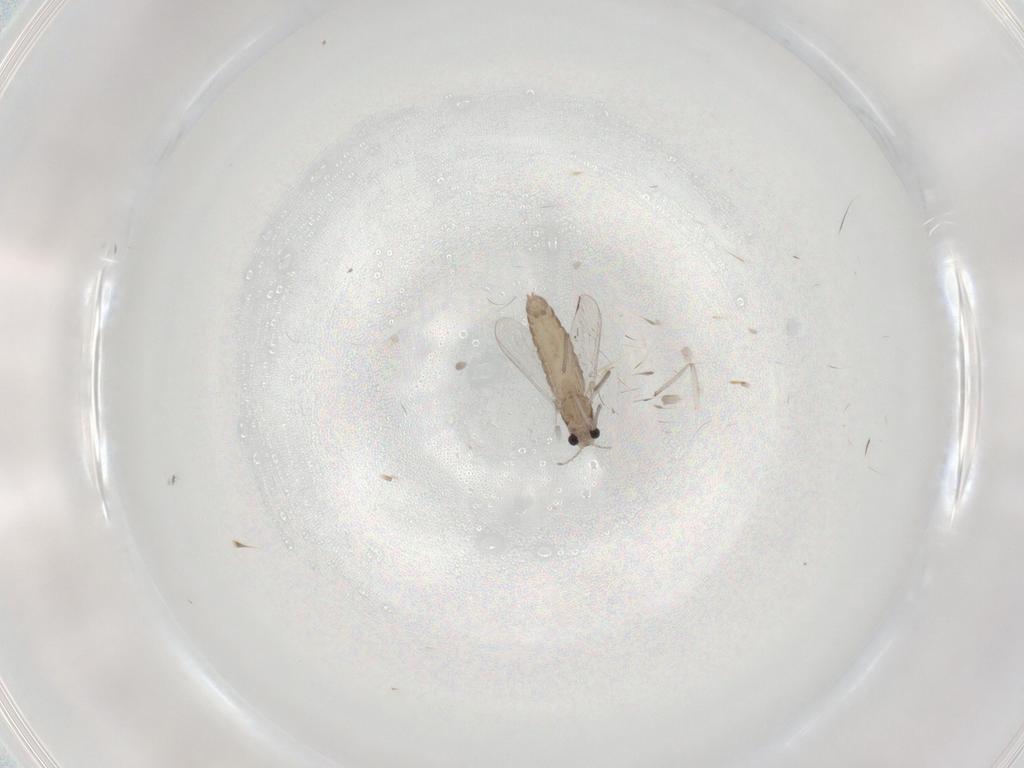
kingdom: Animalia
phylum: Arthropoda
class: Insecta
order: Diptera
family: Chironomidae
